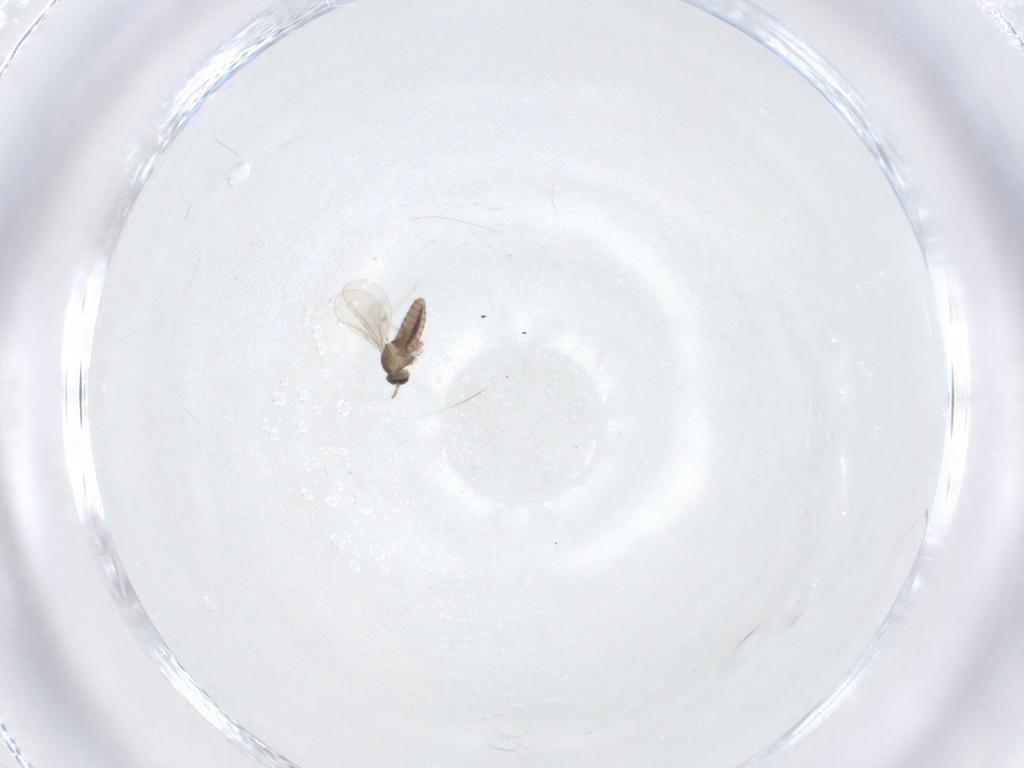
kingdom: Animalia
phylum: Arthropoda
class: Insecta
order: Diptera
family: Cecidomyiidae
